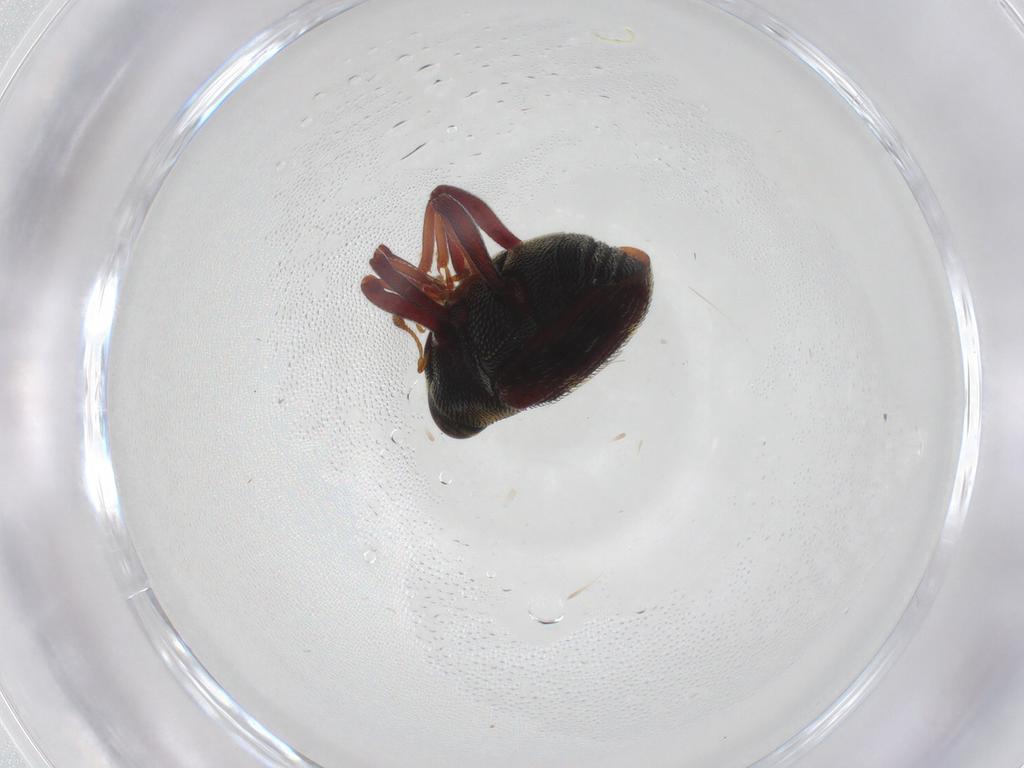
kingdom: Animalia
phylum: Arthropoda
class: Insecta
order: Coleoptera
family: Curculionidae
